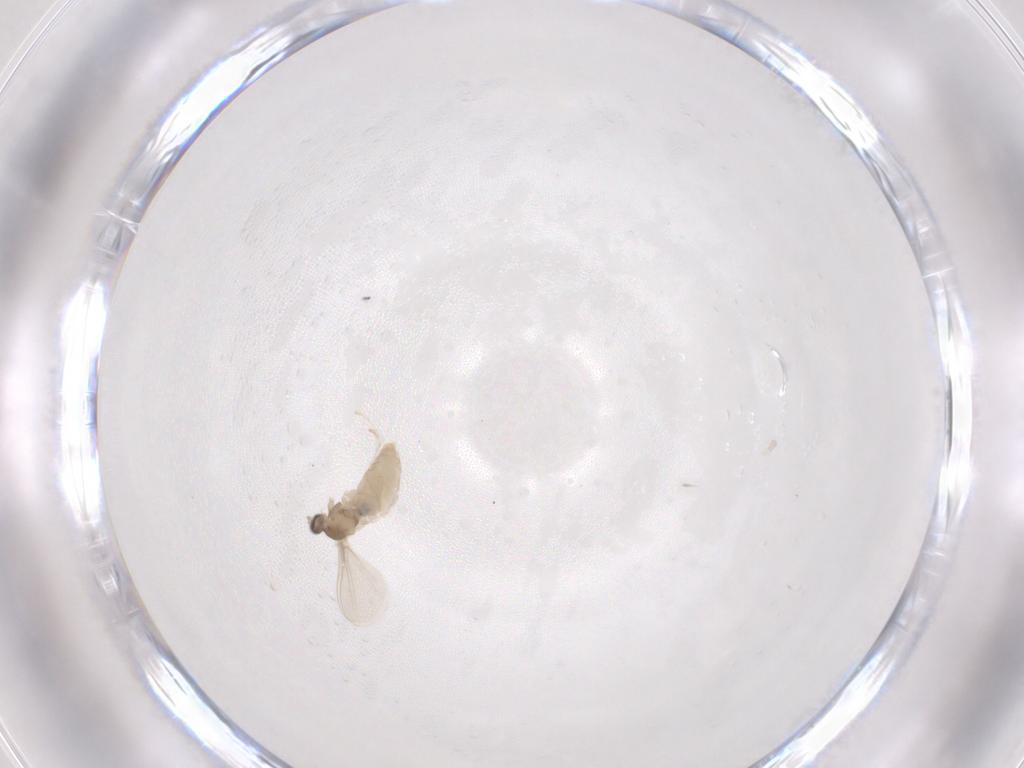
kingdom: Animalia
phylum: Arthropoda
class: Insecta
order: Diptera
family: Cecidomyiidae
